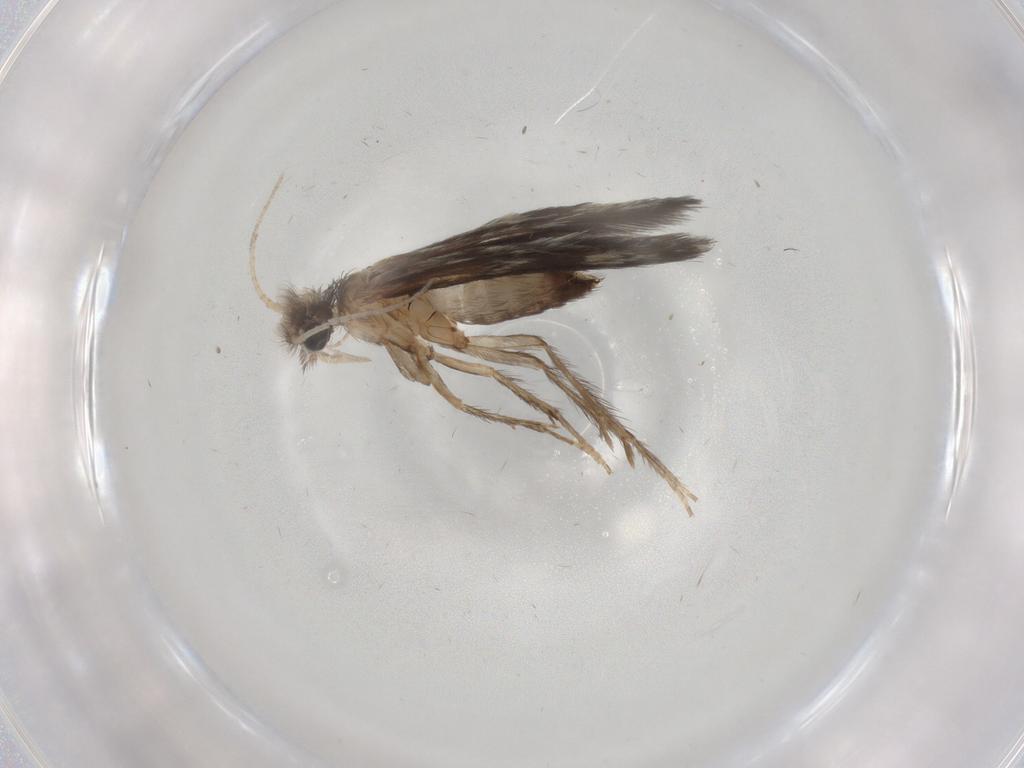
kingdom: Animalia
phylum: Arthropoda
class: Insecta
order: Trichoptera
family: Hydroptilidae
